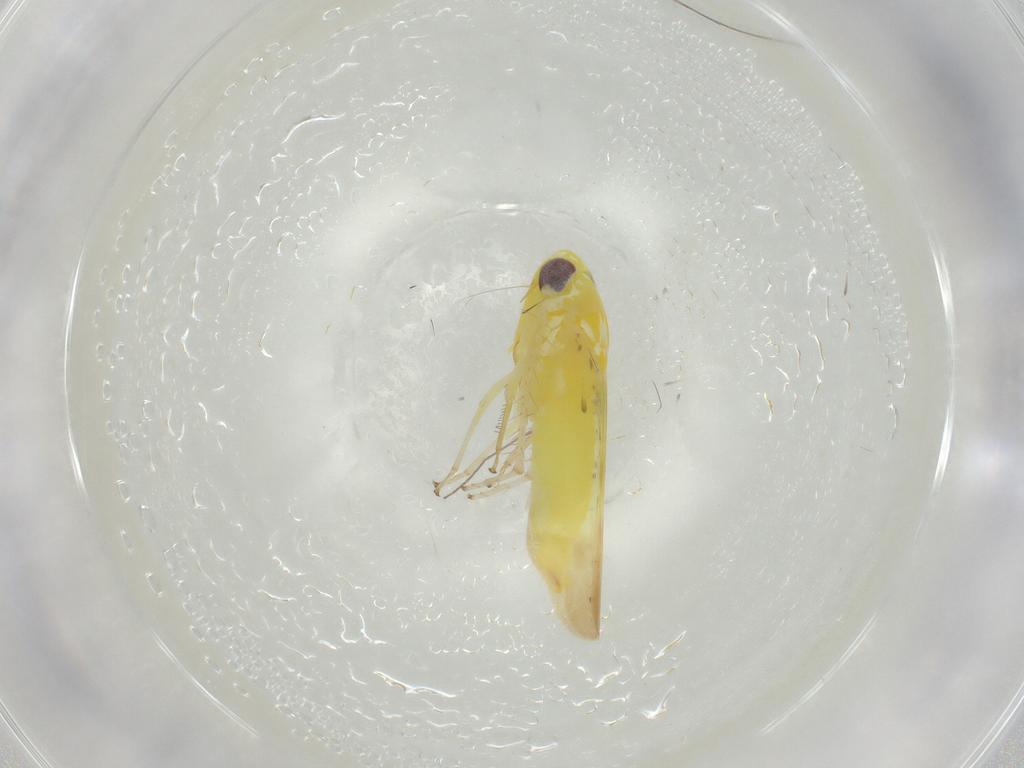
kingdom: Animalia
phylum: Arthropoda
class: Insecta
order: Hemiptera
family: Cicadellidae
